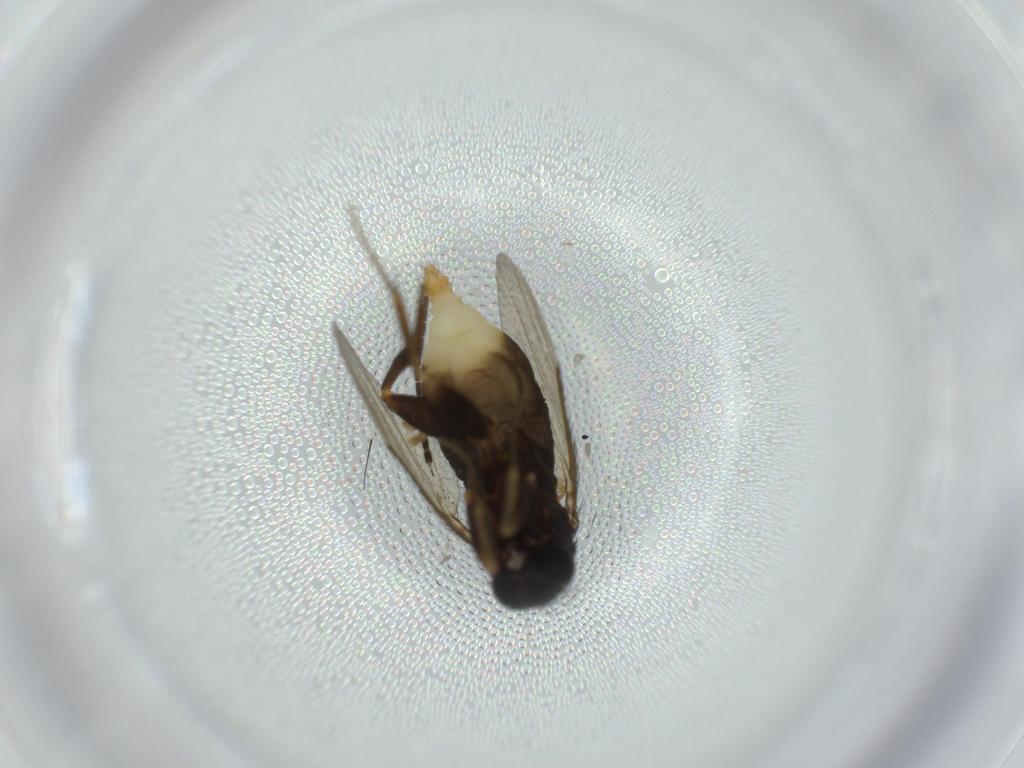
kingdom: Animalia
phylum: Arthropoda
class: Insecta
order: Diptera
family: Phoridae
